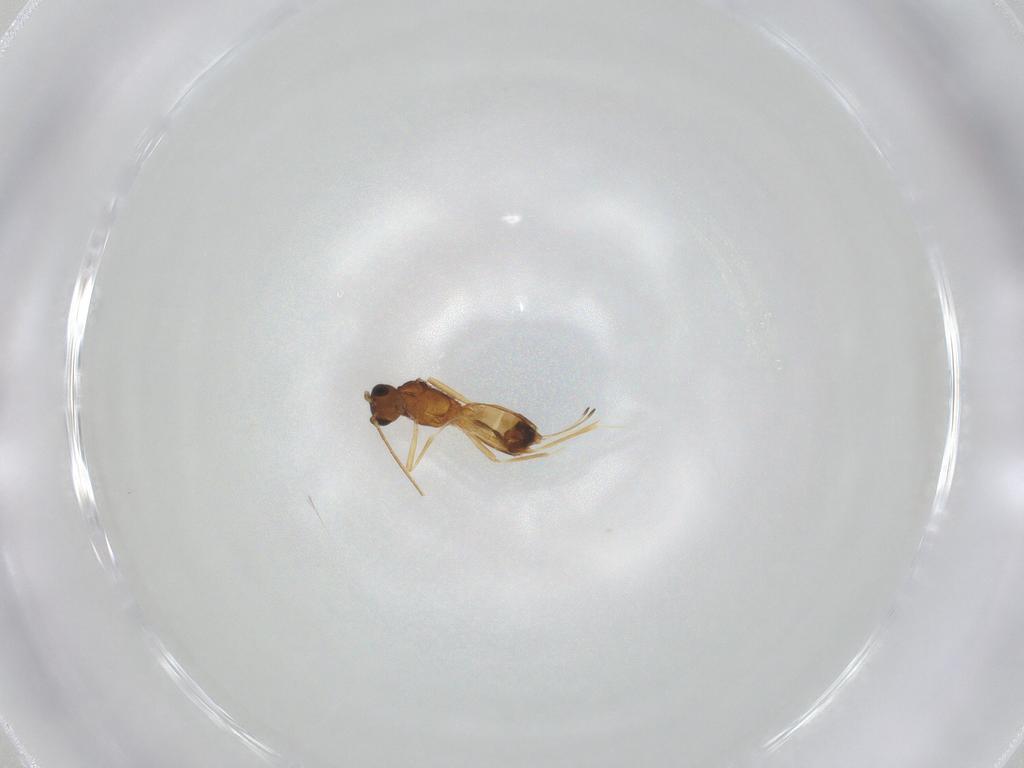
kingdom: Animalia
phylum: Arthropoda
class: Insecta
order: Hymenoptera
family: Braconidae
